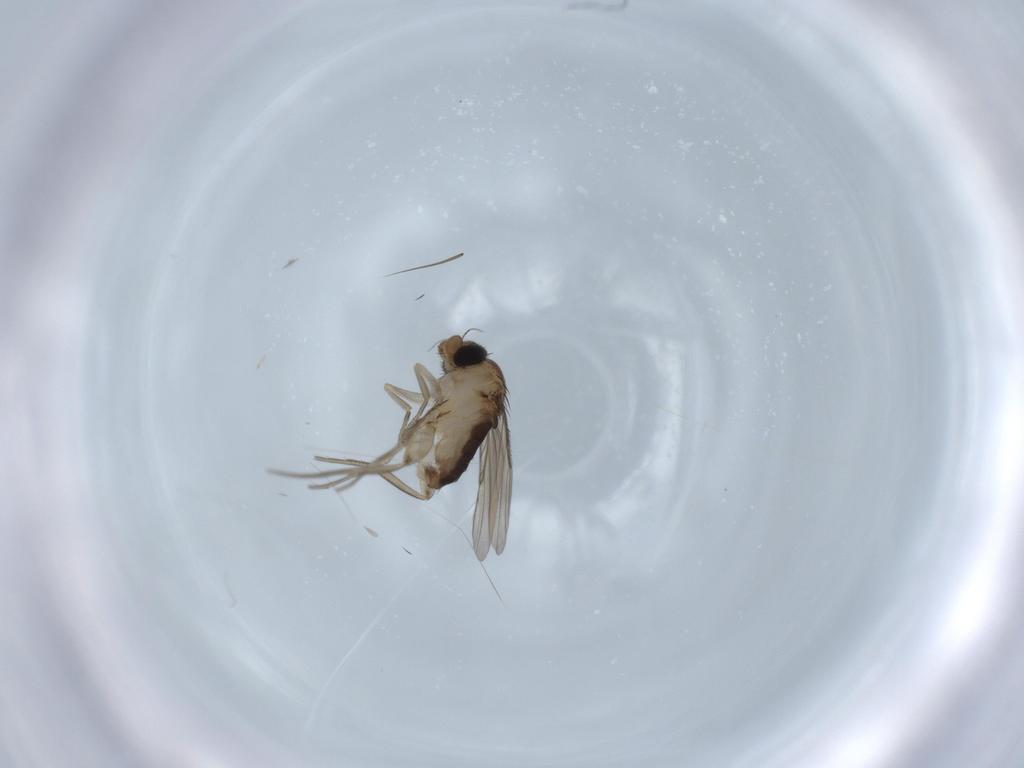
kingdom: Animalia
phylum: Arthropoda
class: Insecta
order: Diptera
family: Phoridae
